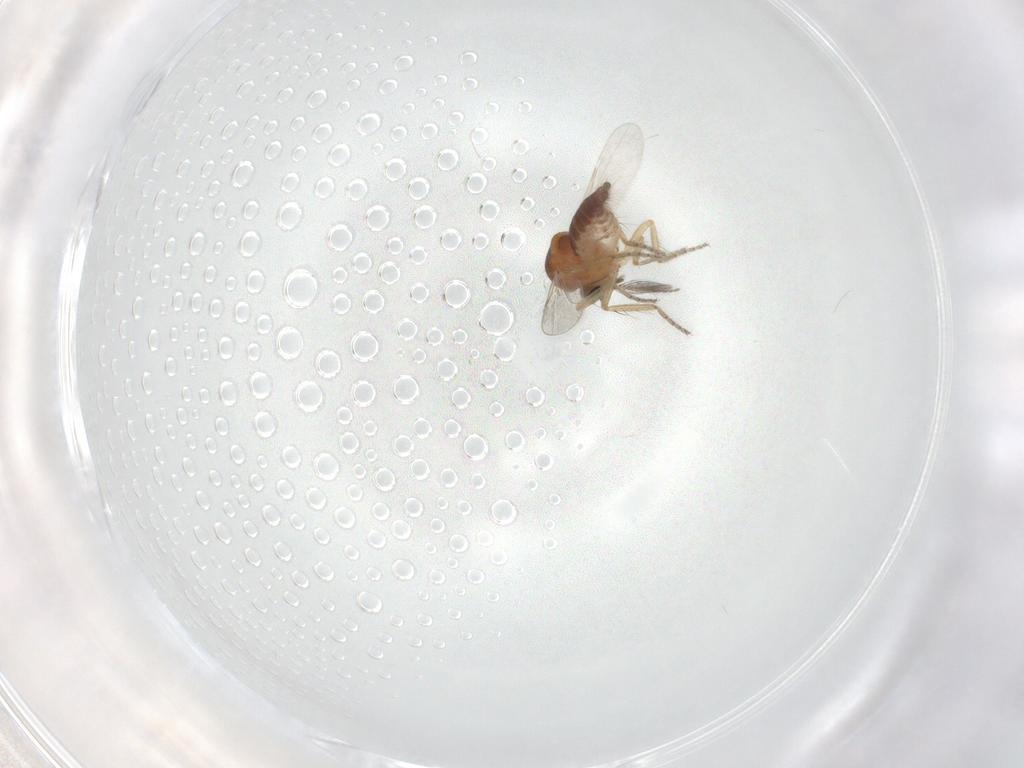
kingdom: Animalia
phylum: Arthropoda
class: Insecta
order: Diptera
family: Ceratopogonidae
